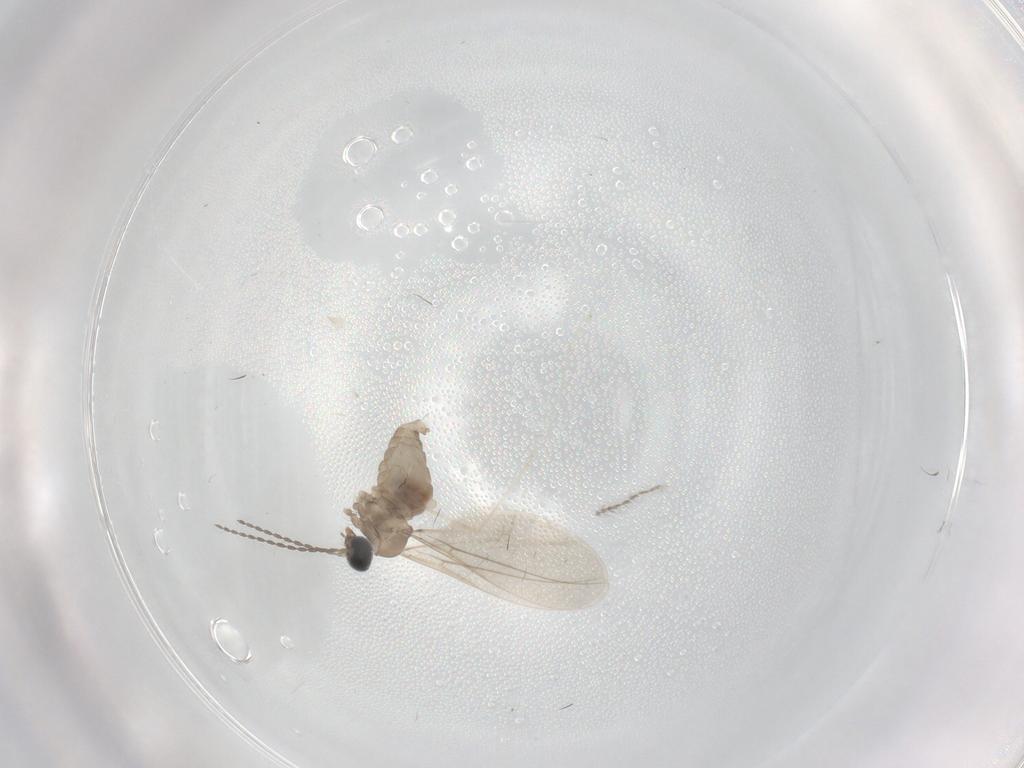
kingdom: Animalia
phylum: Arthropoda
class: Insecta
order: Diptera
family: Cecidomyiidae
